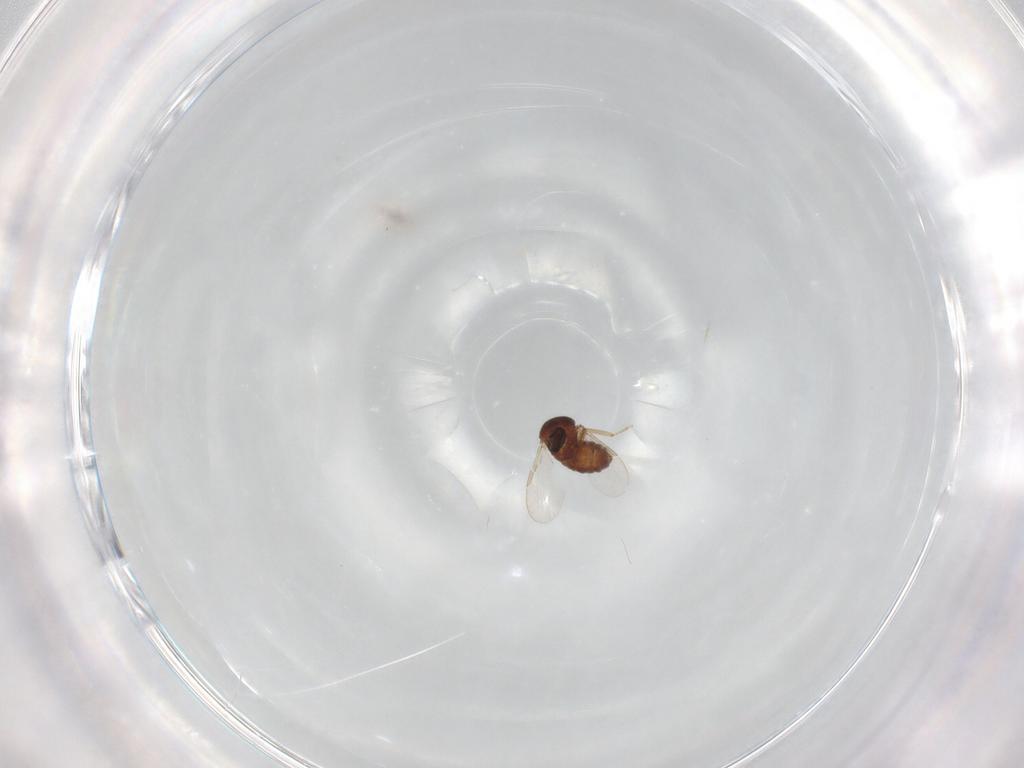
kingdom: Animalia
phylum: Arthropoda
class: Insecta
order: Diptera
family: Ceratopogonidae
